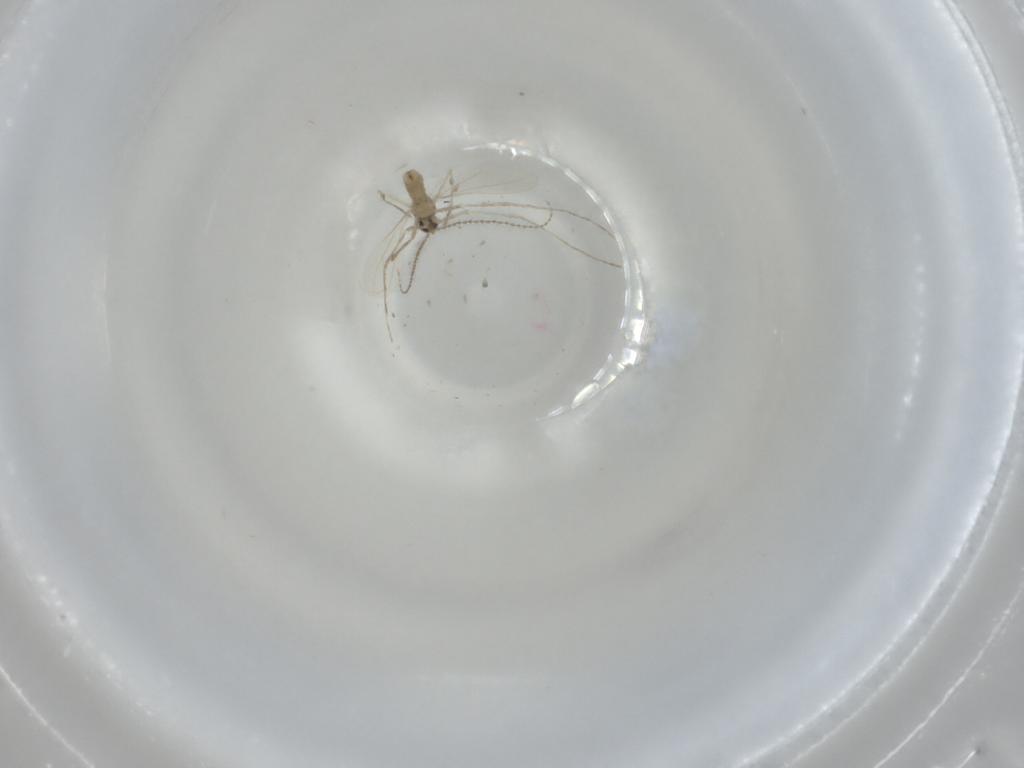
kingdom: Animalia
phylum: Arthropoda
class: Insecta
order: Diptera
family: Cecidomyiidae
